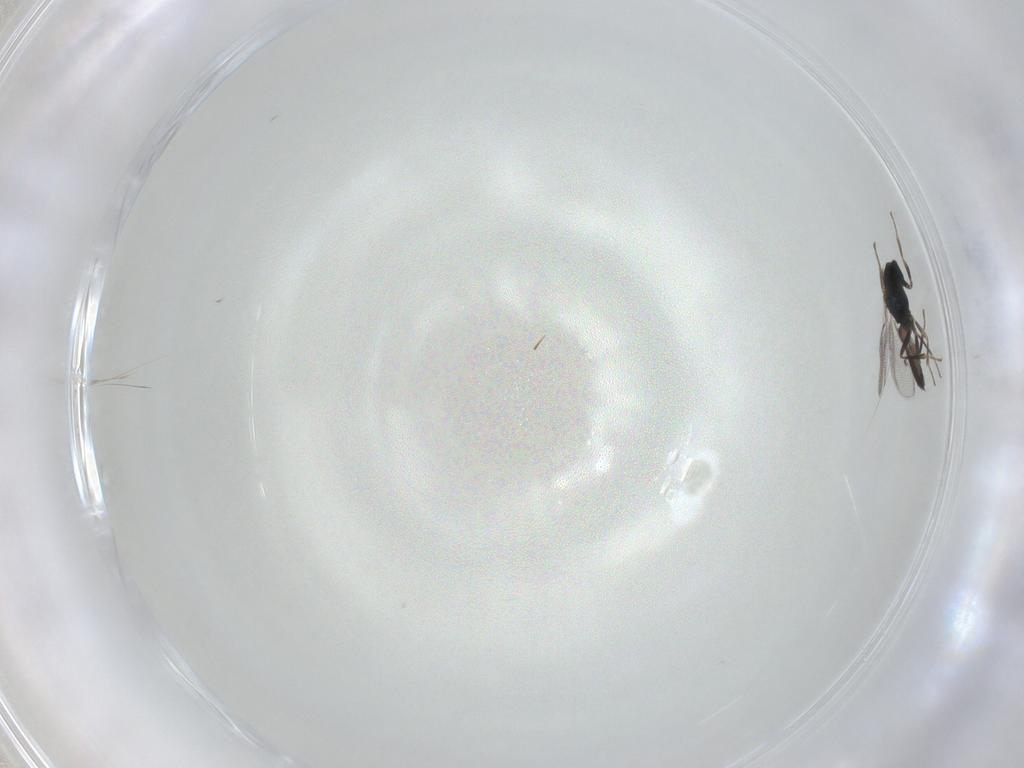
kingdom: Animalia
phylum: Arthropoda
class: Insecta
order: Hymenoptera
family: Pteromalidae
